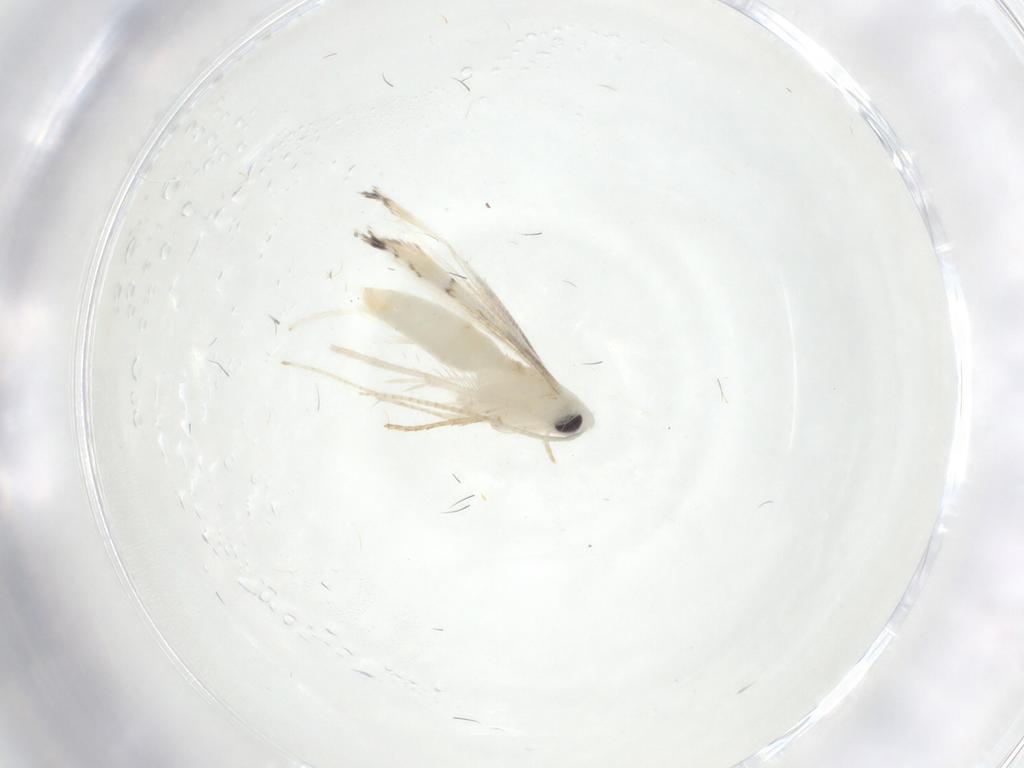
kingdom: Animalia
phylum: Arthropoda
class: Insecta
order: Lepidoptera
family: Gracillariidae
